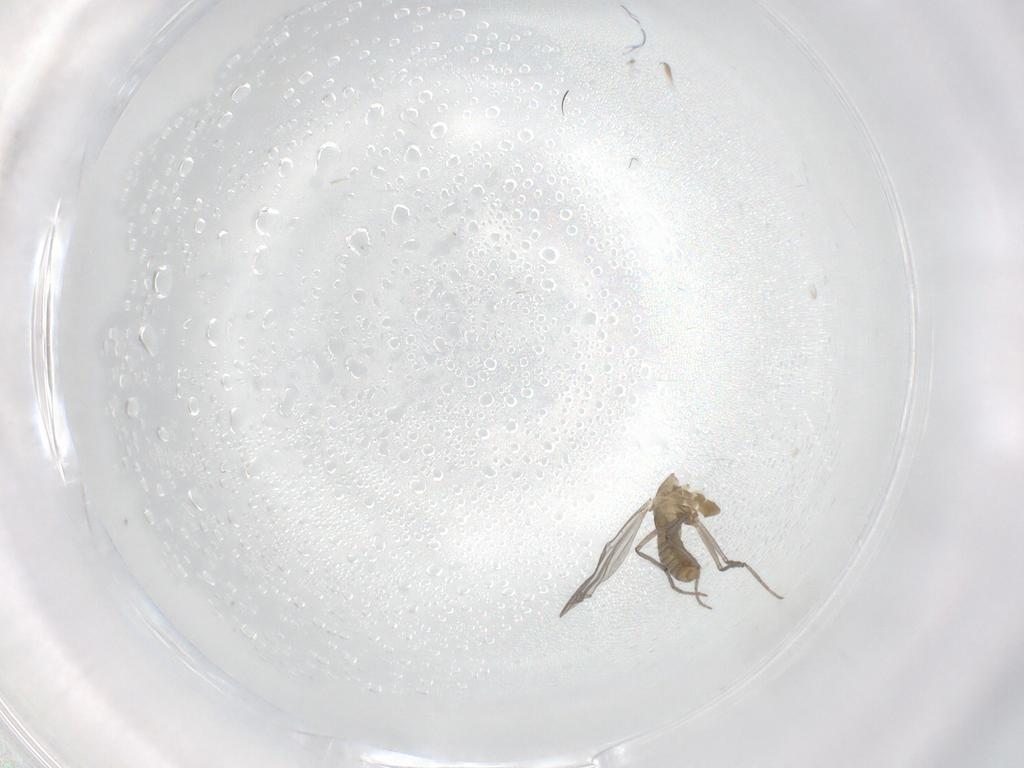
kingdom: Animalia
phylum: Arthropoda
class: Insecta
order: Diptera
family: Chironomidae
